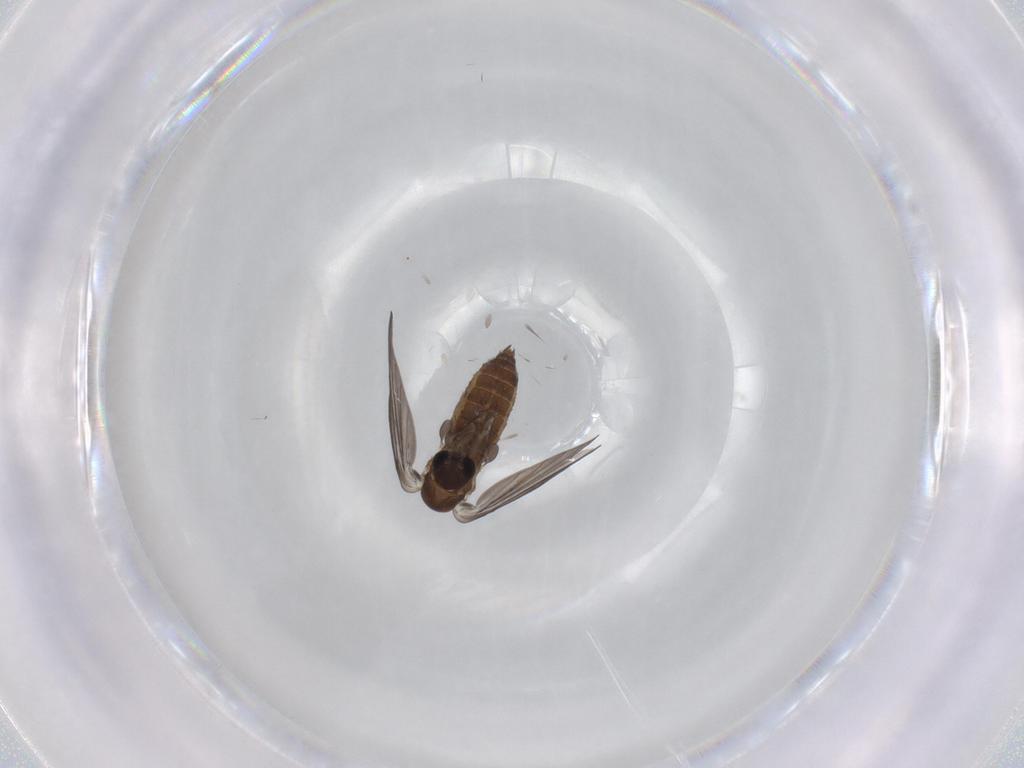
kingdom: Animalia
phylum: Arthropoda
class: Insecta
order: Diptera
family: Psychodidae
